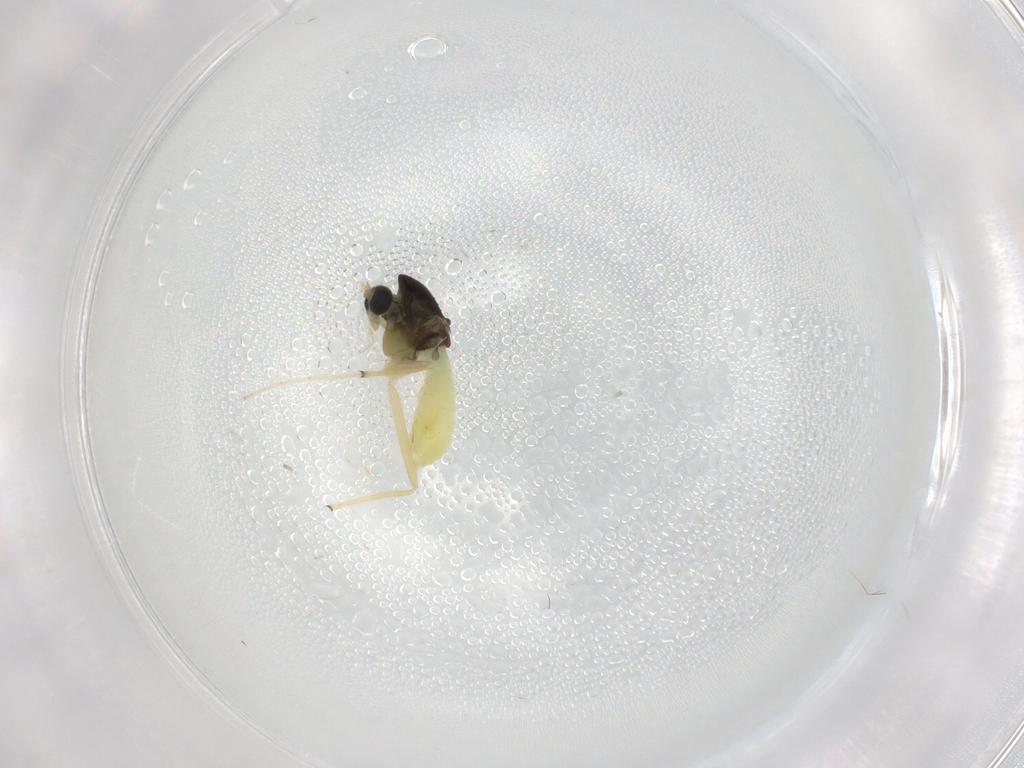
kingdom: Animalia
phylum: Arthropoda
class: Insecta
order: Diptera
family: Chironomidae
